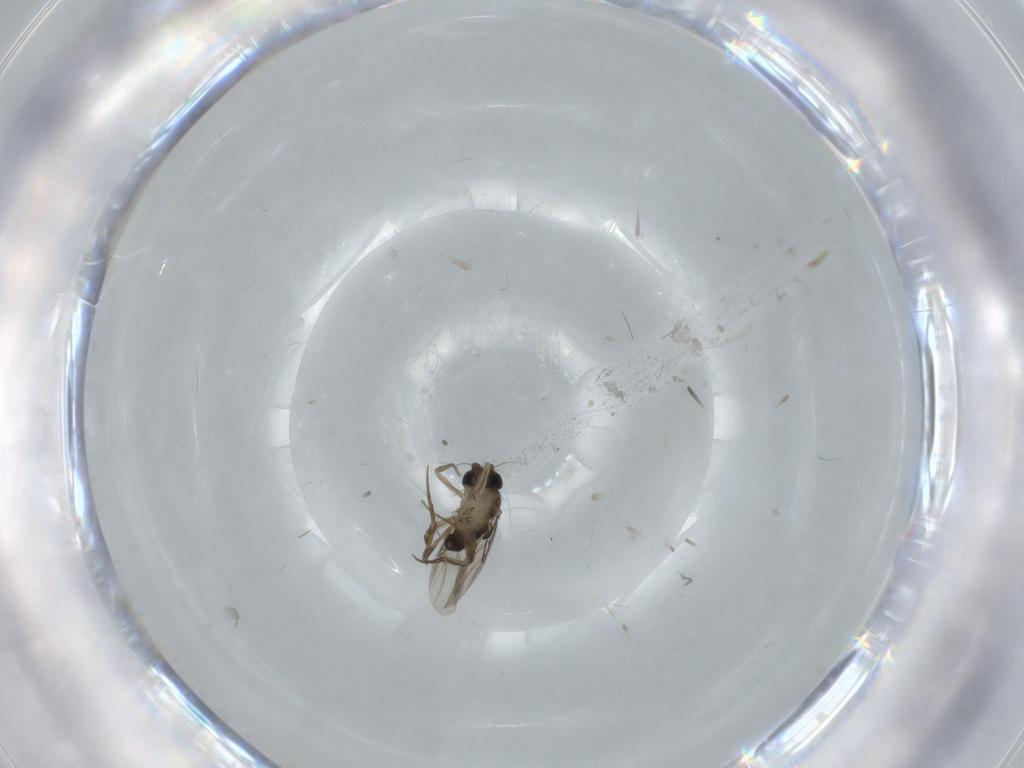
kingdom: Animalia
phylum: Arthropoda
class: Insecta
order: Diptera
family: Phoridae
